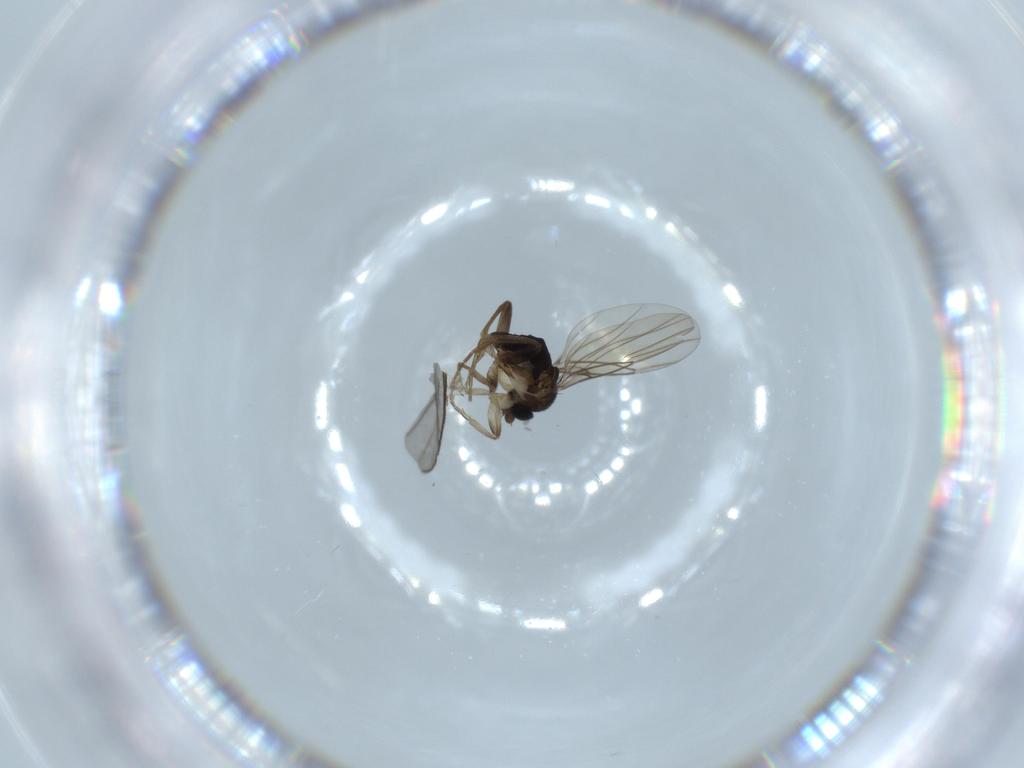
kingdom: Animalia
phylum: Arthropoda
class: Insecta
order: Diptera
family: Phoridae
